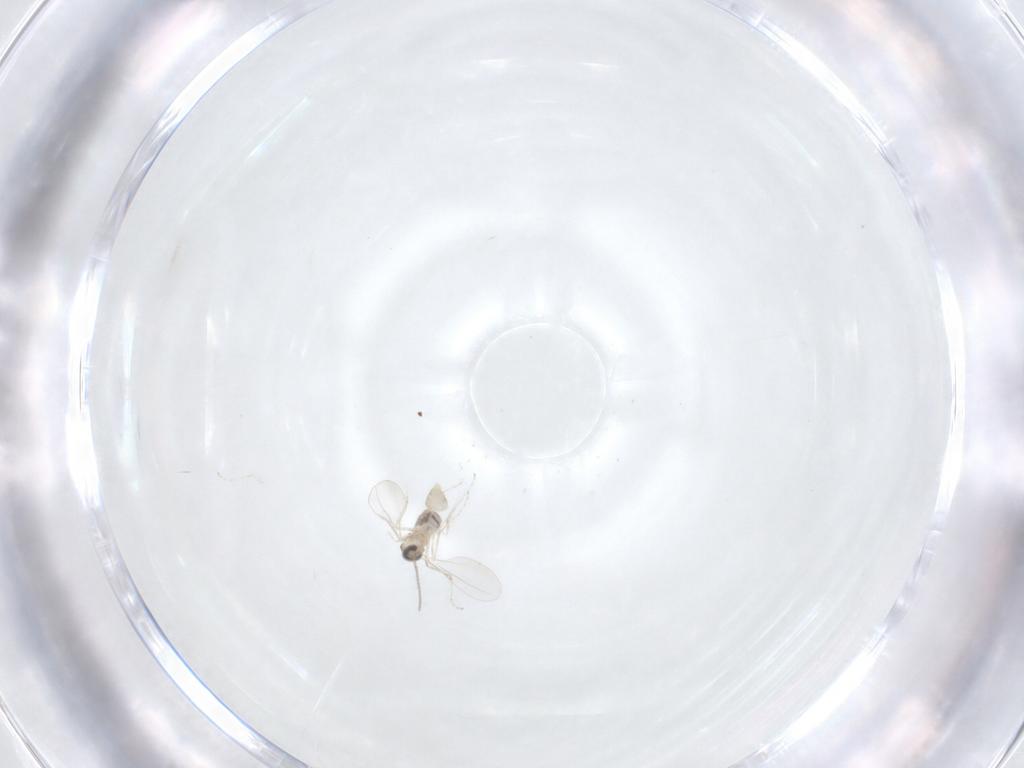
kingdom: Animalia
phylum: Arthropoda
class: Insecta
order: Diptera
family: Cecidomyiidae
